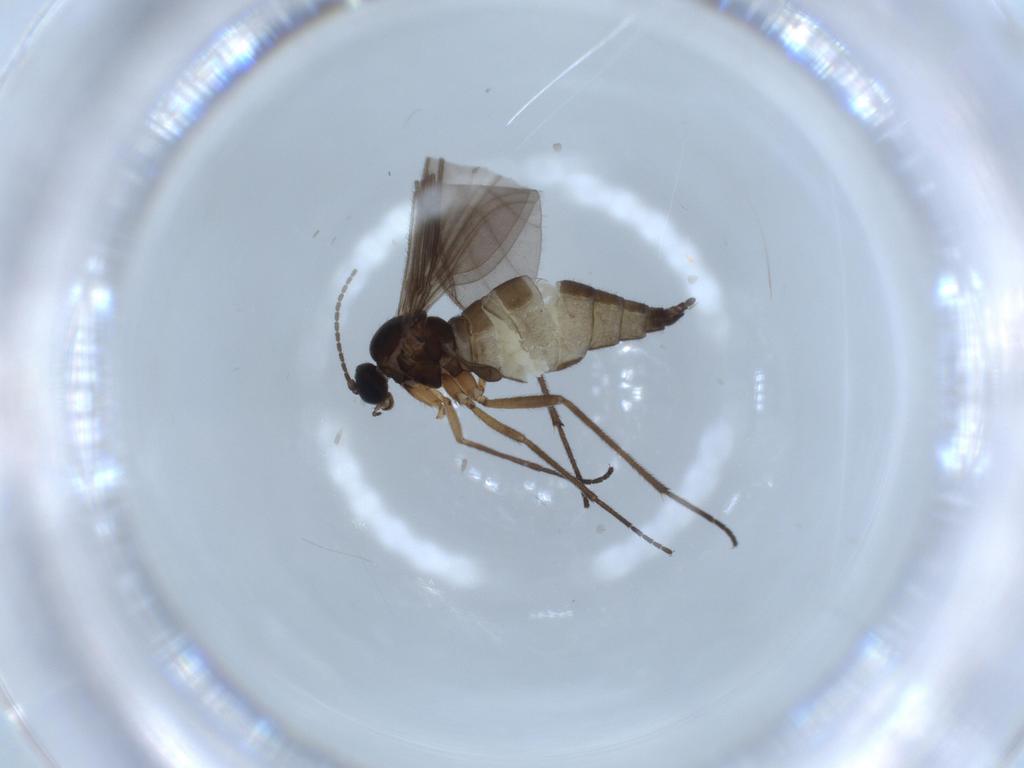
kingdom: Animalia
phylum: Arthropoda
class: Insecta
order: Diptera
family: Sciaridae
